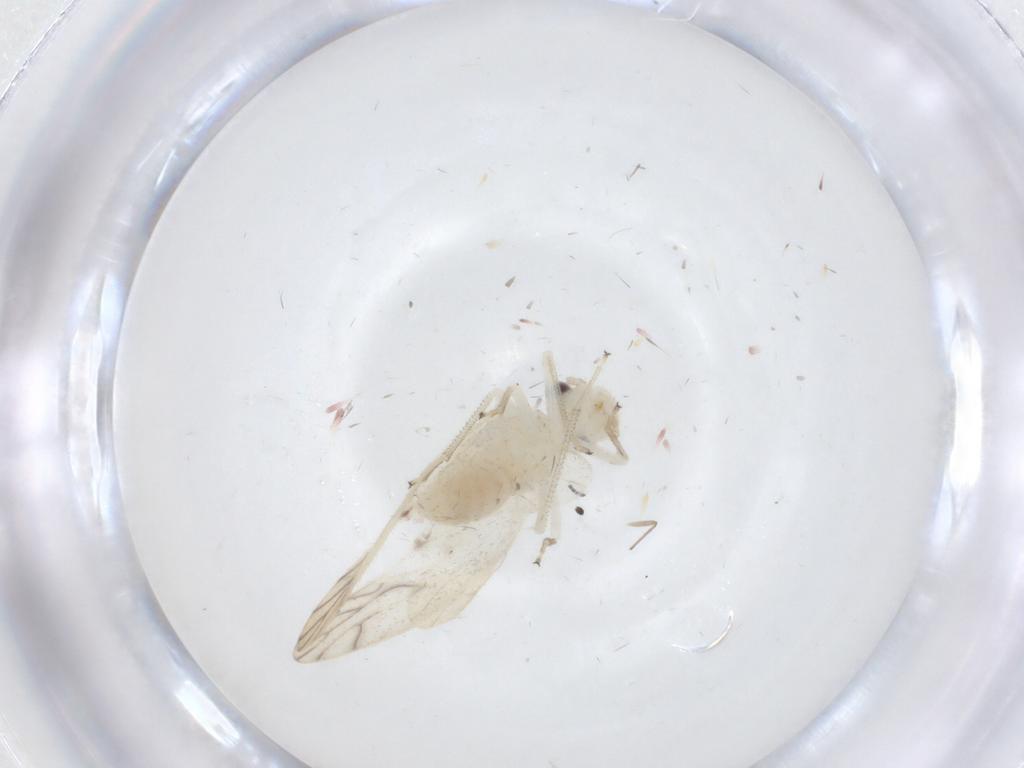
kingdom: Animalia
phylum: Arthropoda
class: Insecta
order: Psocodea
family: Caeciliusidae
